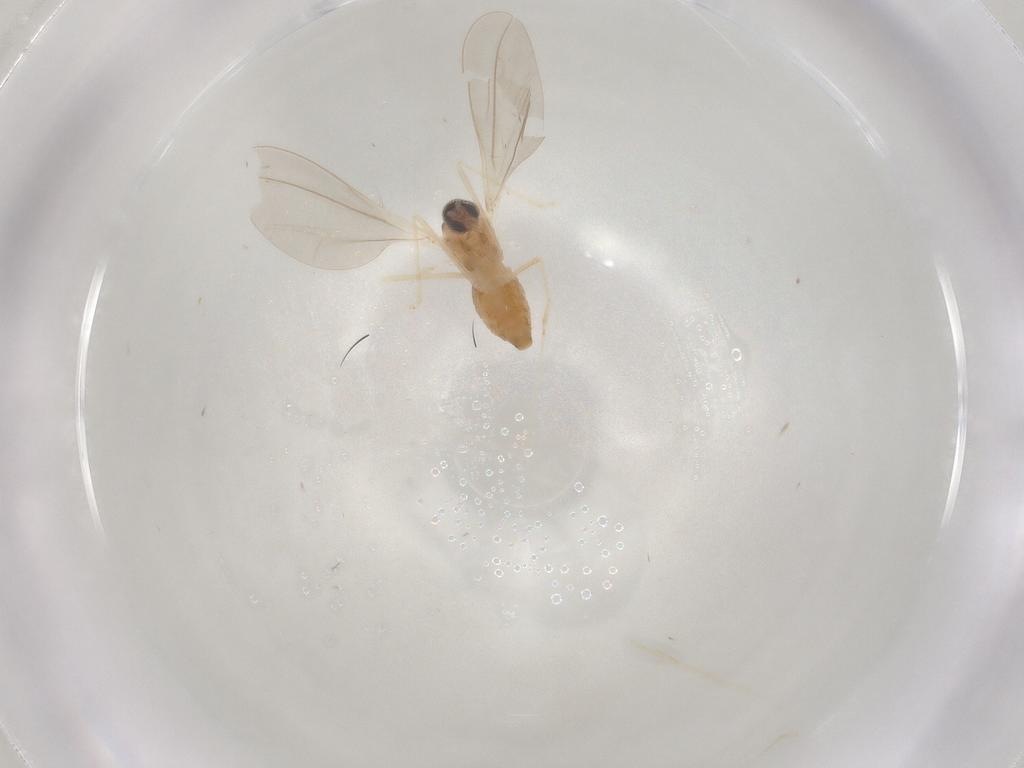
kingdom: Animalia
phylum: Arthropoda
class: Insecta
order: Diptera
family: Cecidomyiidae
